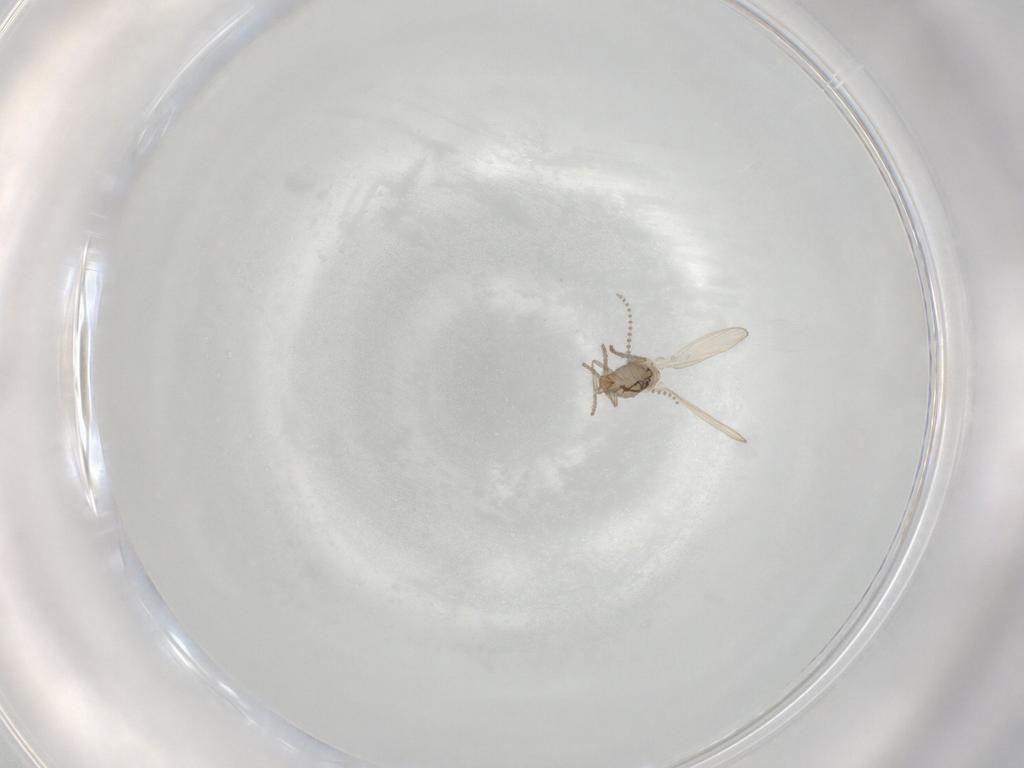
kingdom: Animalia
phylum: Arthropoda
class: Insecta
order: Diptera
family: Psychodidae
